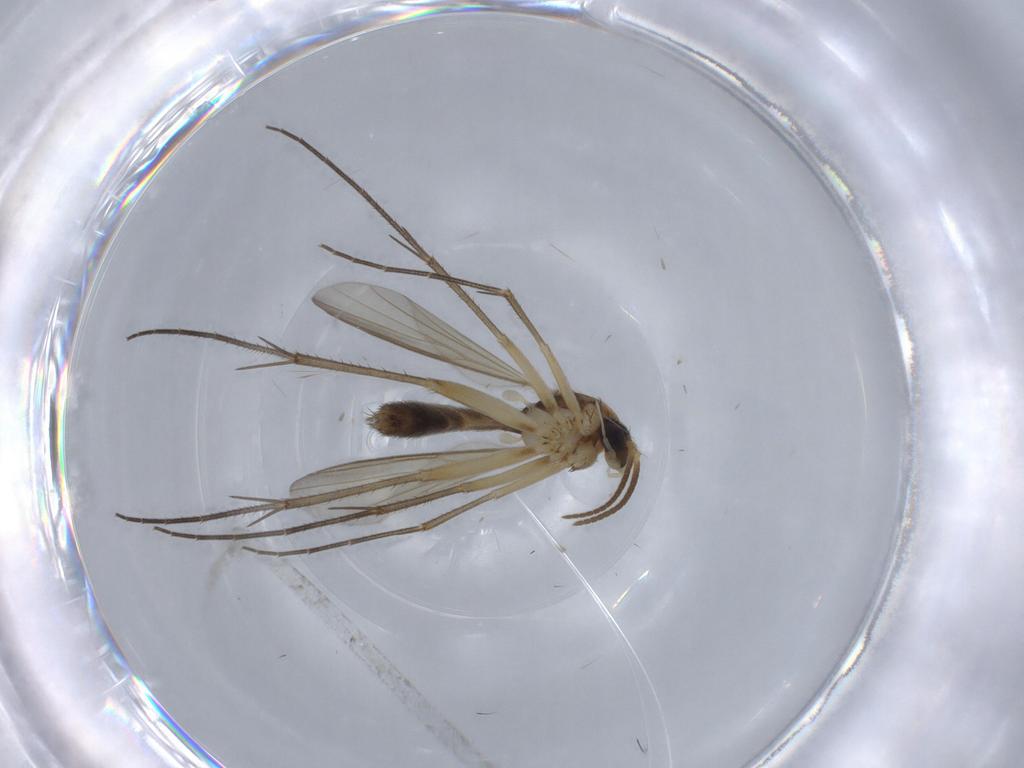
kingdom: Animalia
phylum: Arthropoda
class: Insecta
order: Diptera
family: Mycetophilidae
